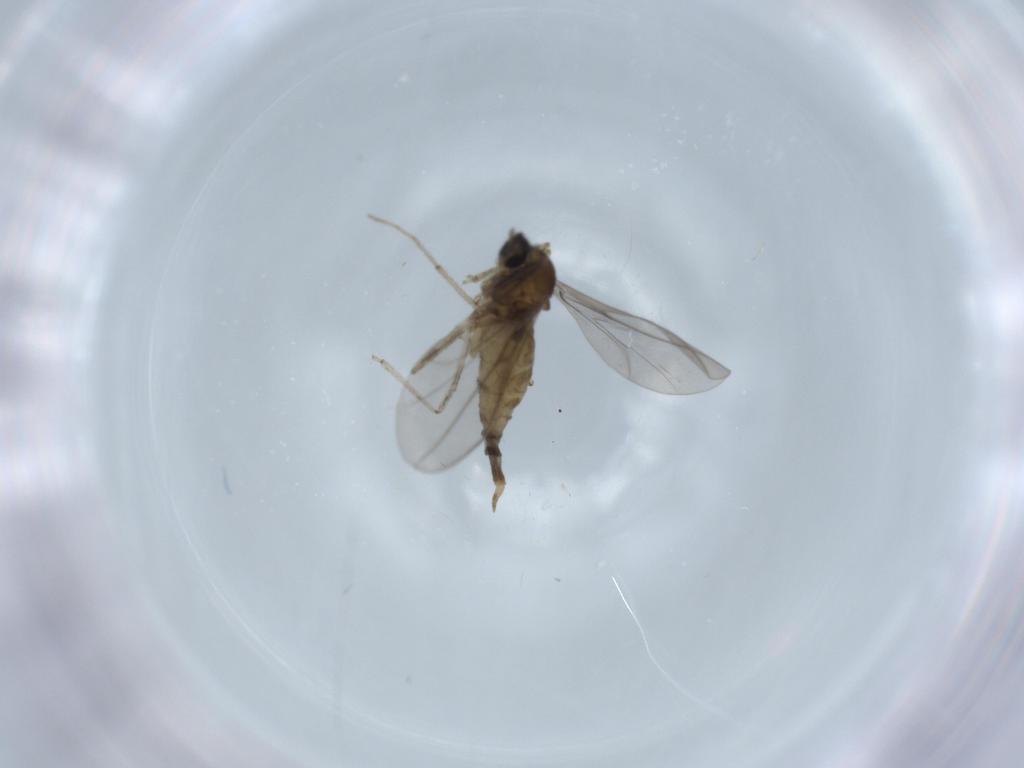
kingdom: Animalia
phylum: Arthropoda
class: Insecta
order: Diptera
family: Cecidomyiidae
